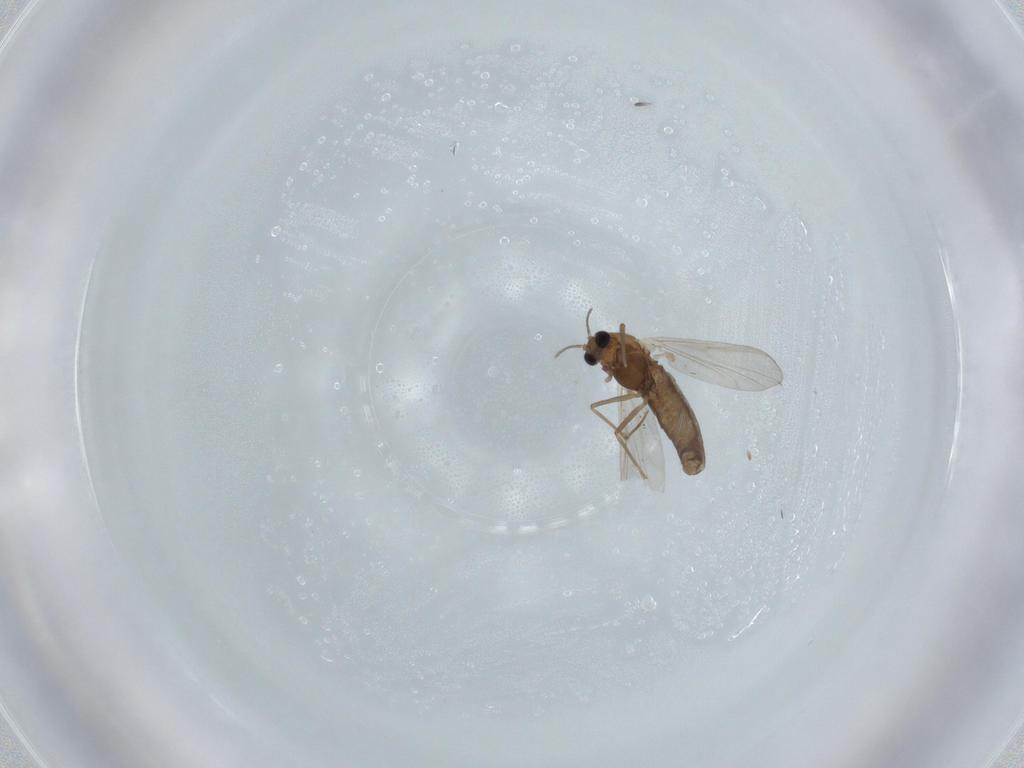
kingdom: Animalia
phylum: Arthropoda
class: Insecta
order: Diptera
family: Chironomidae
